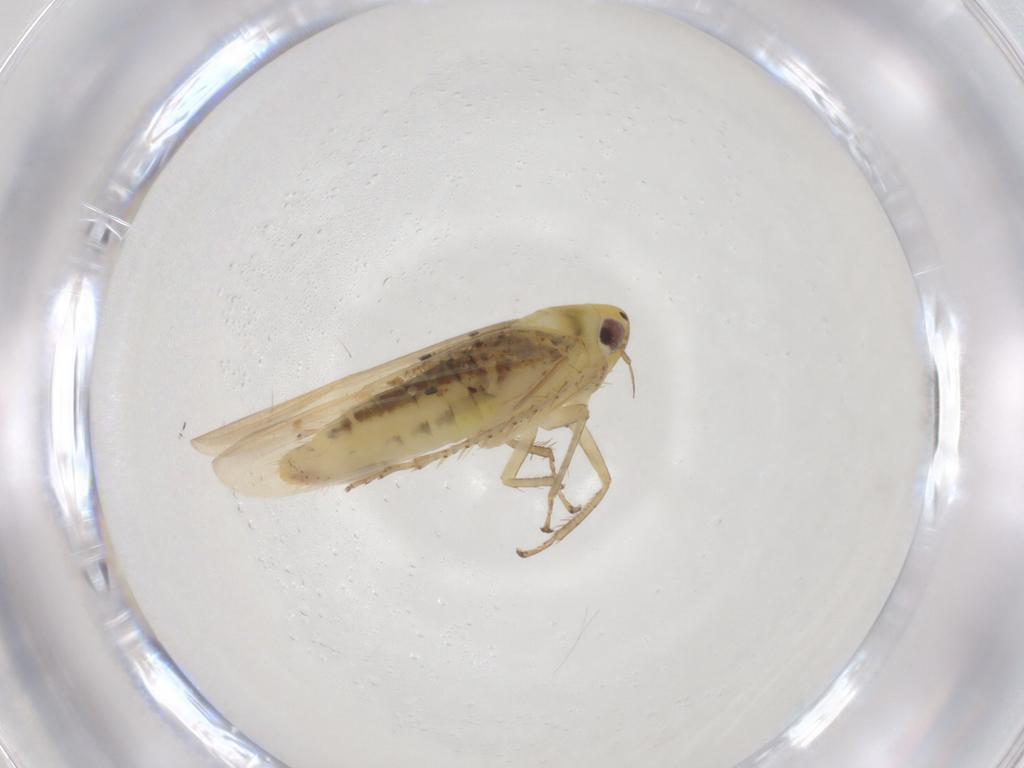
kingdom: Animalia
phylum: Arthropoda
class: Insecta
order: Hemiptera
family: Cicadellidae
